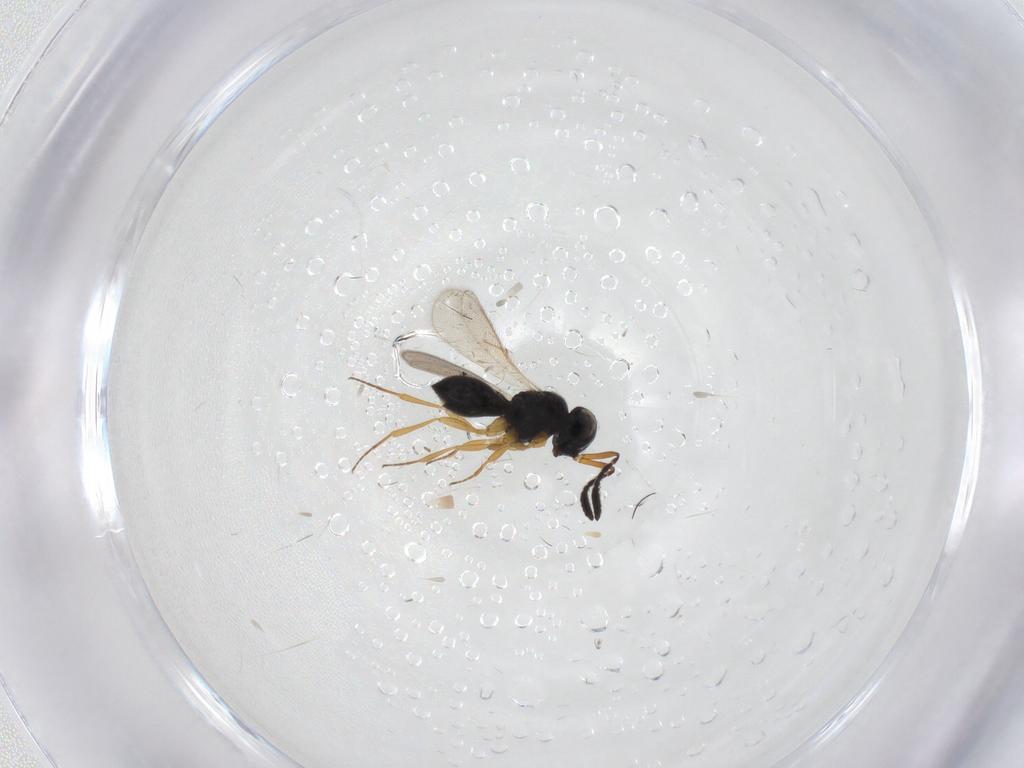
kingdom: Animalia
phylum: Arthropoda
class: Insecta
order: Hymenoptera
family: Scelionidae
